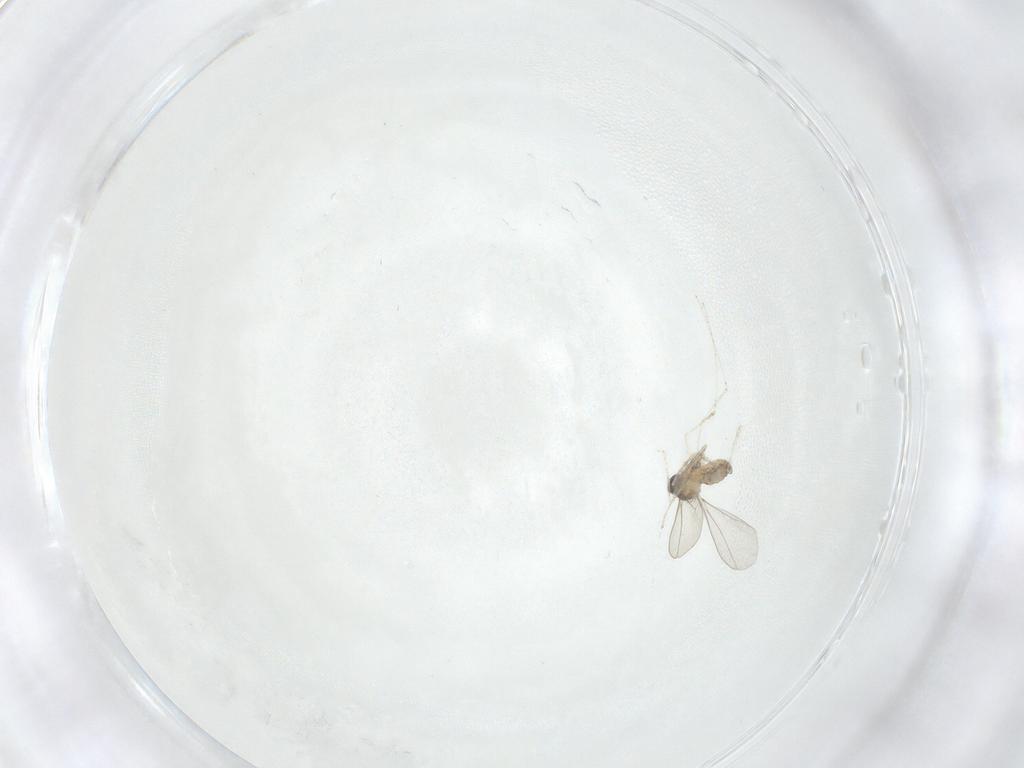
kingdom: Animalia
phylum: Arthropoda
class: Insecta
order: Diptera
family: Cecidomyiidae
